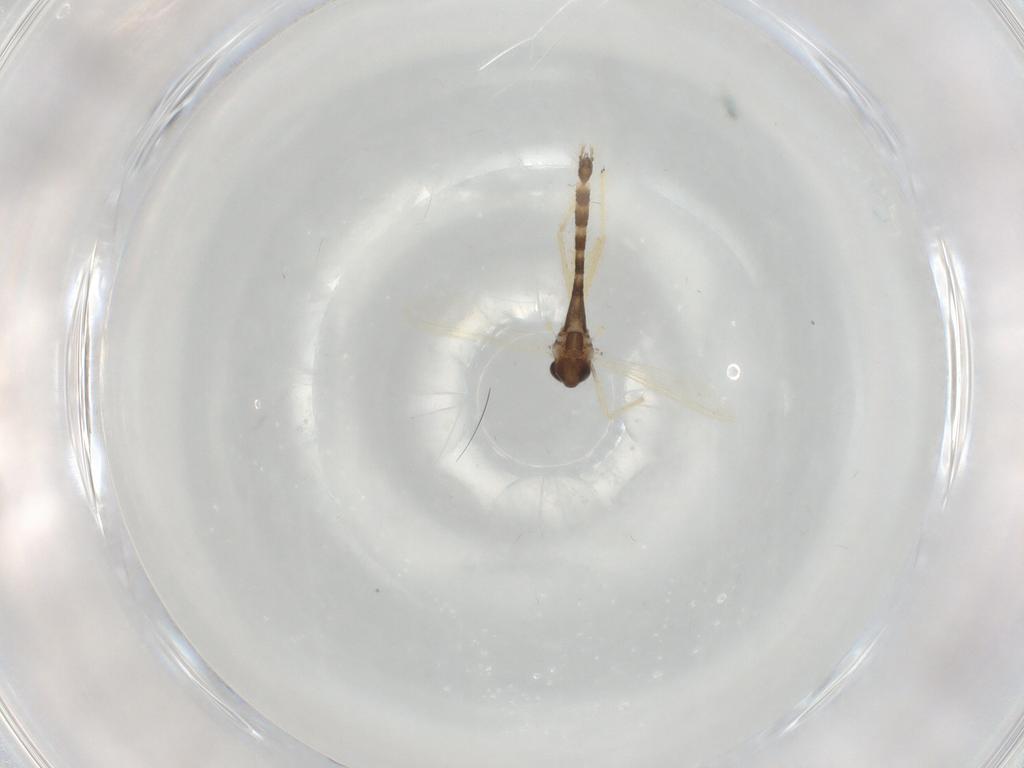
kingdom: Animalia
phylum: Arthropoda
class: Insecta
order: Diptera
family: Chironomidae
